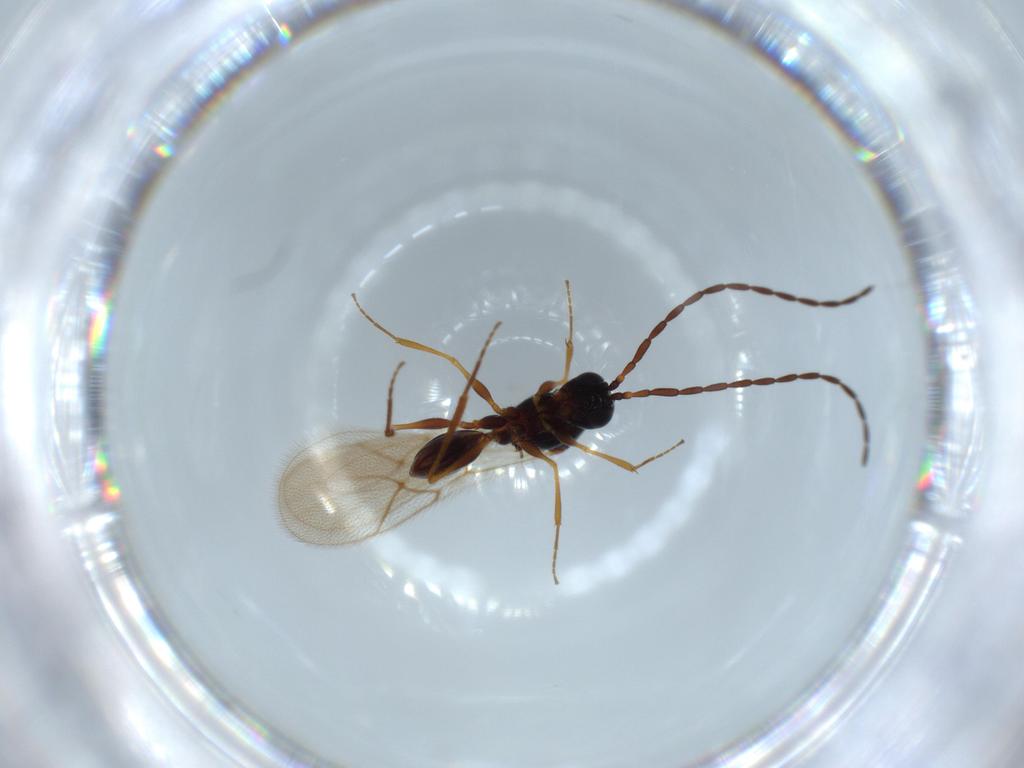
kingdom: Animalia
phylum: Arthropoda
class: Insecta
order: Hymenoptera
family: Figitidae
